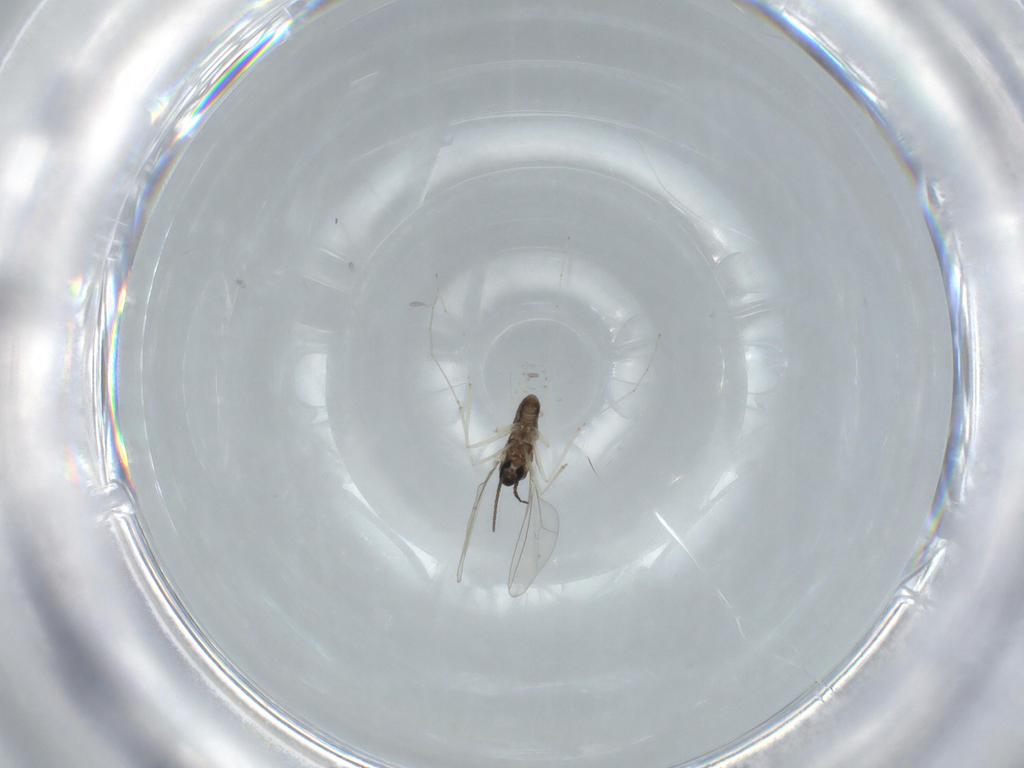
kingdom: Animalia
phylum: Arthropoda
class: Insecta
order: Diptera
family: Cecidomyiidae
